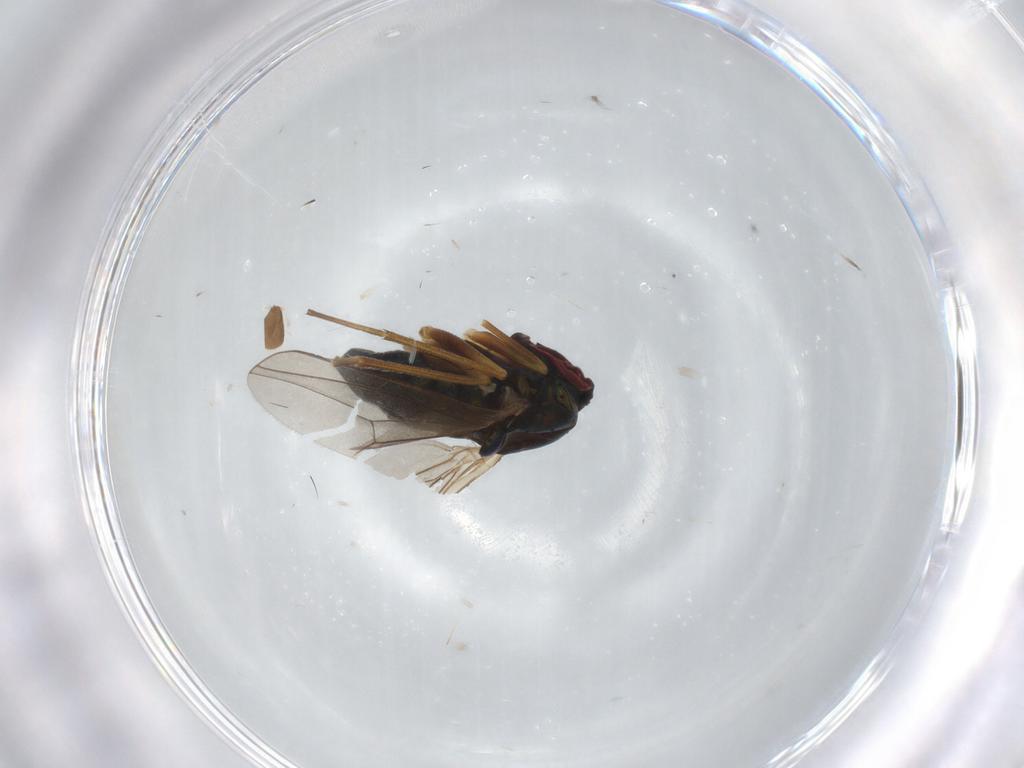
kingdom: Animalia
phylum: Arthropoda
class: Insecta
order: Diptera
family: Dolichopodidae
